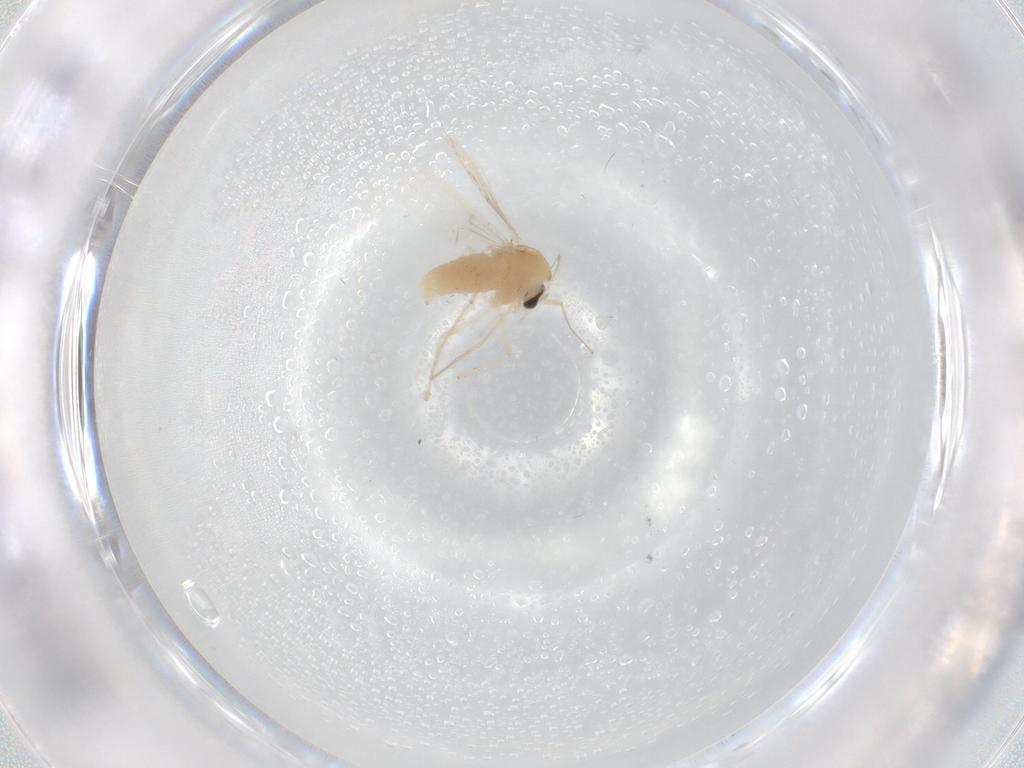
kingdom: Animalia
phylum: Arthropoda
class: Insecta
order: Diptera
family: Chironomidae
